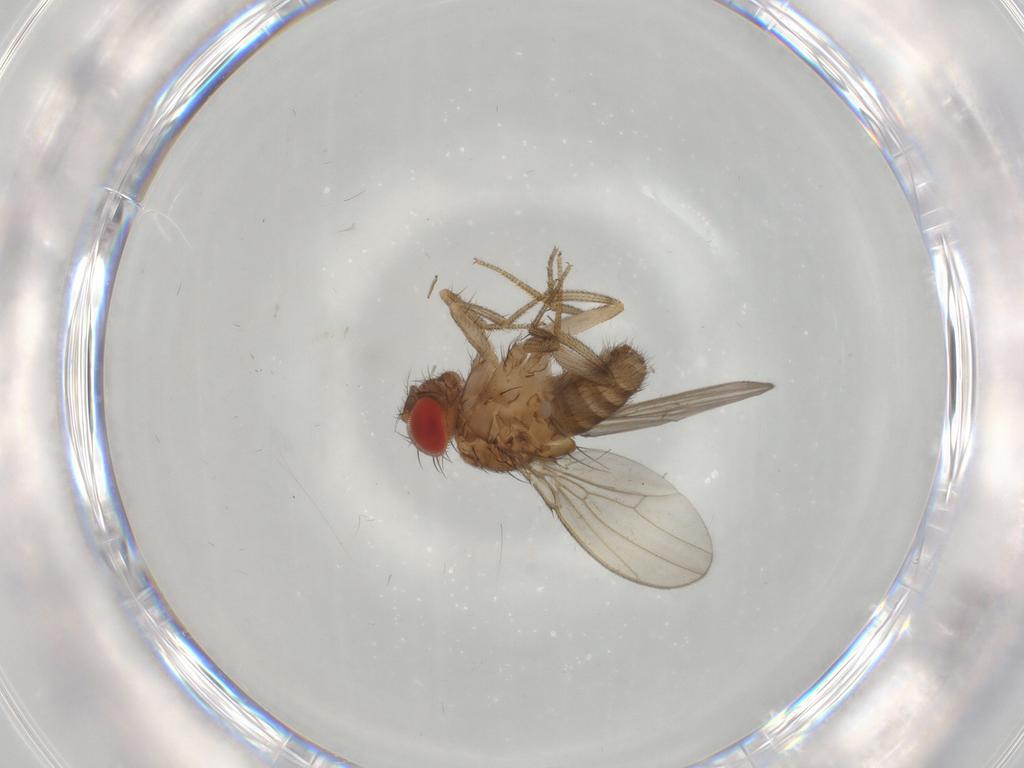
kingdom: Animalia
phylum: Arthropoda
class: Insecta
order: Diptera
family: Drosophilidae
